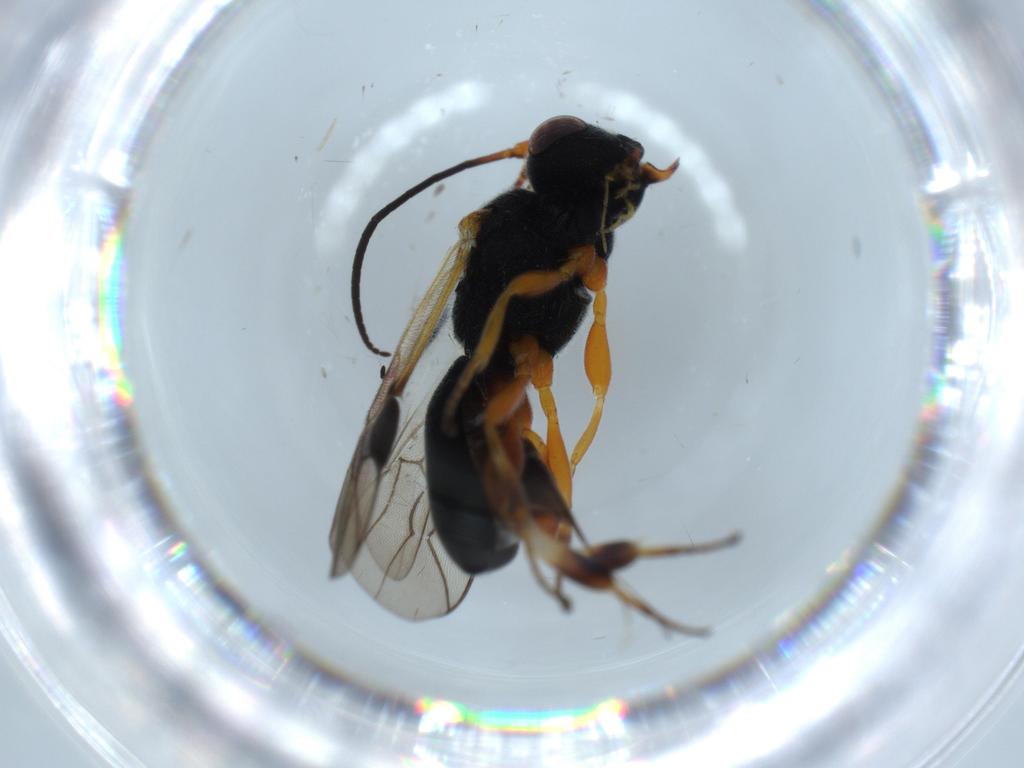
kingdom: Animalia
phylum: Arthropoda
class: Insecta
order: Hymenoptera
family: Braconidae
